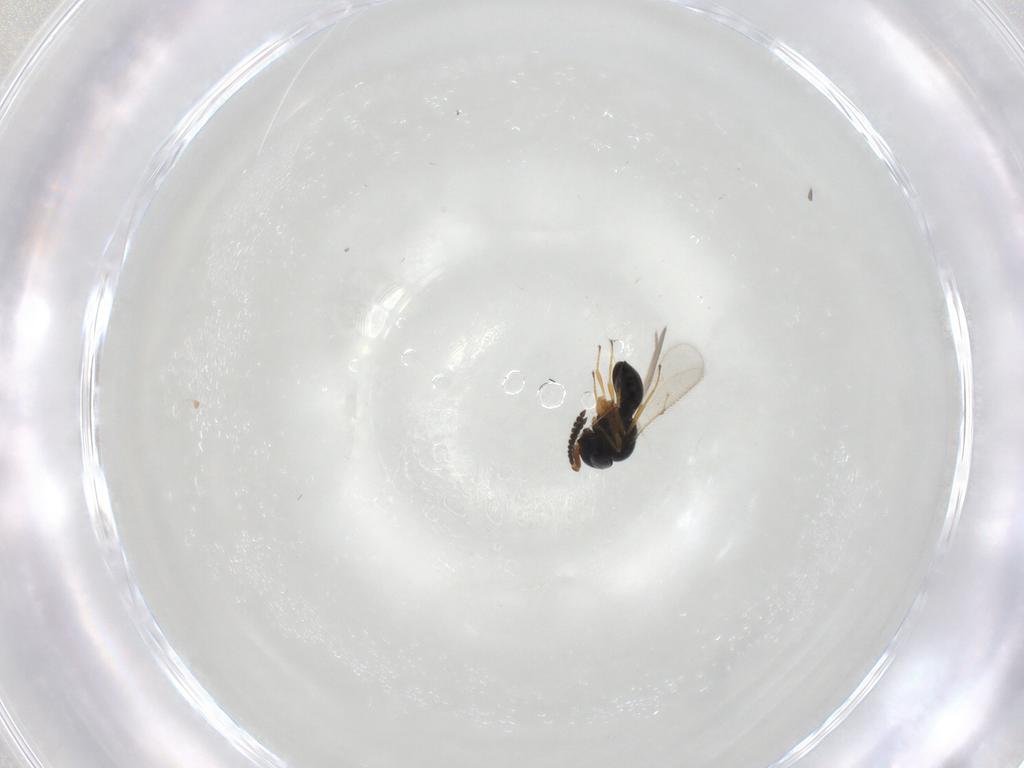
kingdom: Animalia
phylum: Arthropoda
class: Insecta
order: Hymenoptera
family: Scelionidae
